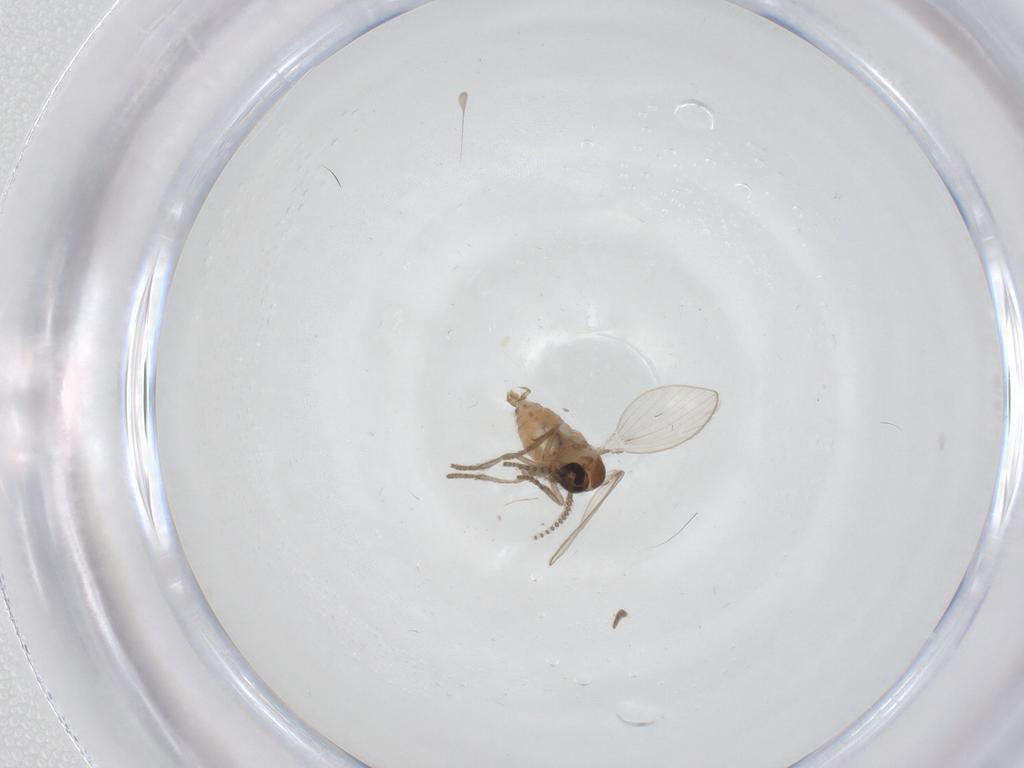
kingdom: Animalia
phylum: Arthropoda
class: Insecta
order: Diptera
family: Psychodidae
